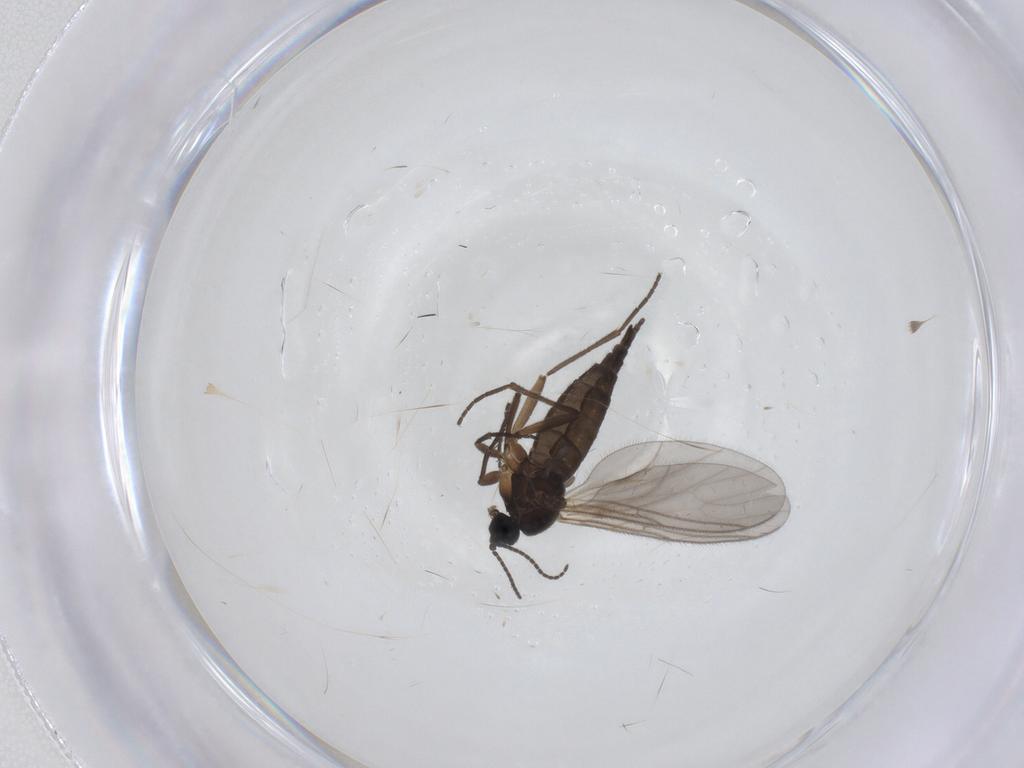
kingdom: Animalia
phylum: Arthropoda
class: Insecta
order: Diptera
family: Sciaridae
